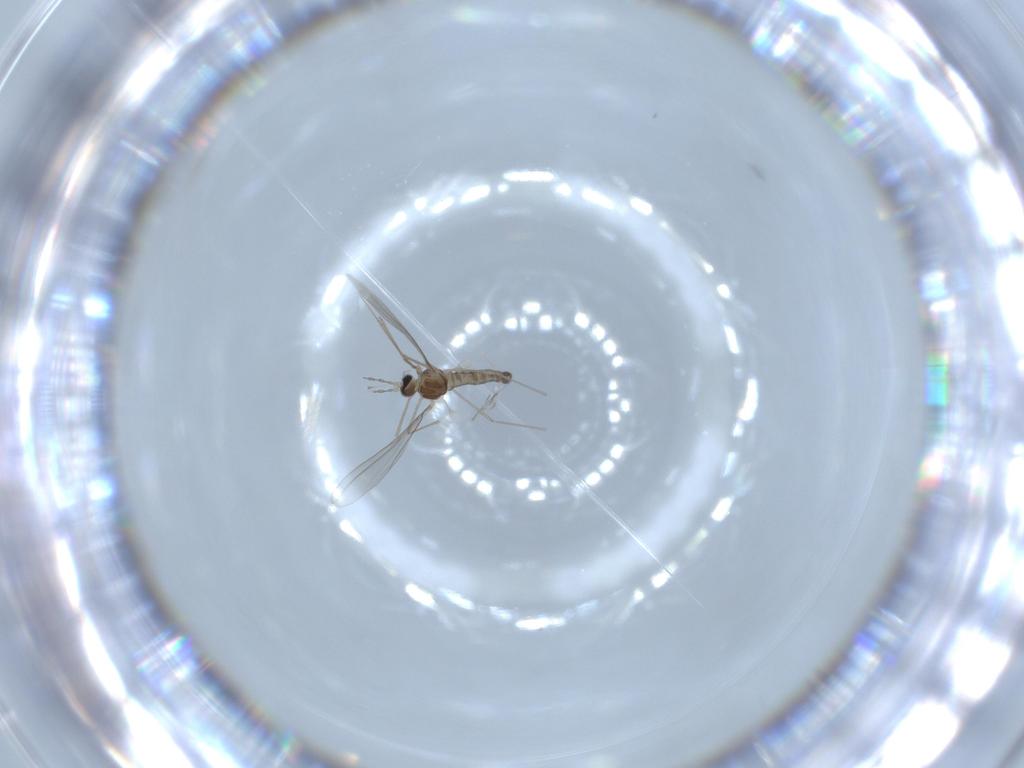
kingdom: Animalia
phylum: Arthropoda
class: Insecta
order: Diptera
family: Cecidomyiidae
